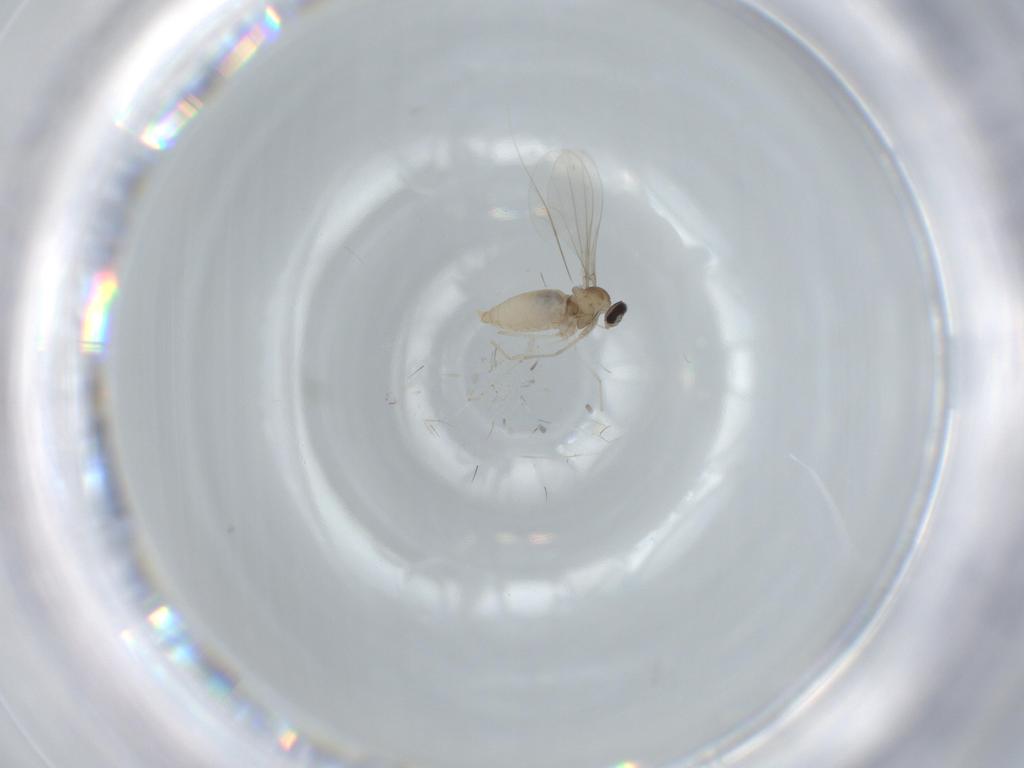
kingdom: Animalia
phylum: Arthropoda
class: Insecta
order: Diptera
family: Cecidomyiidae
